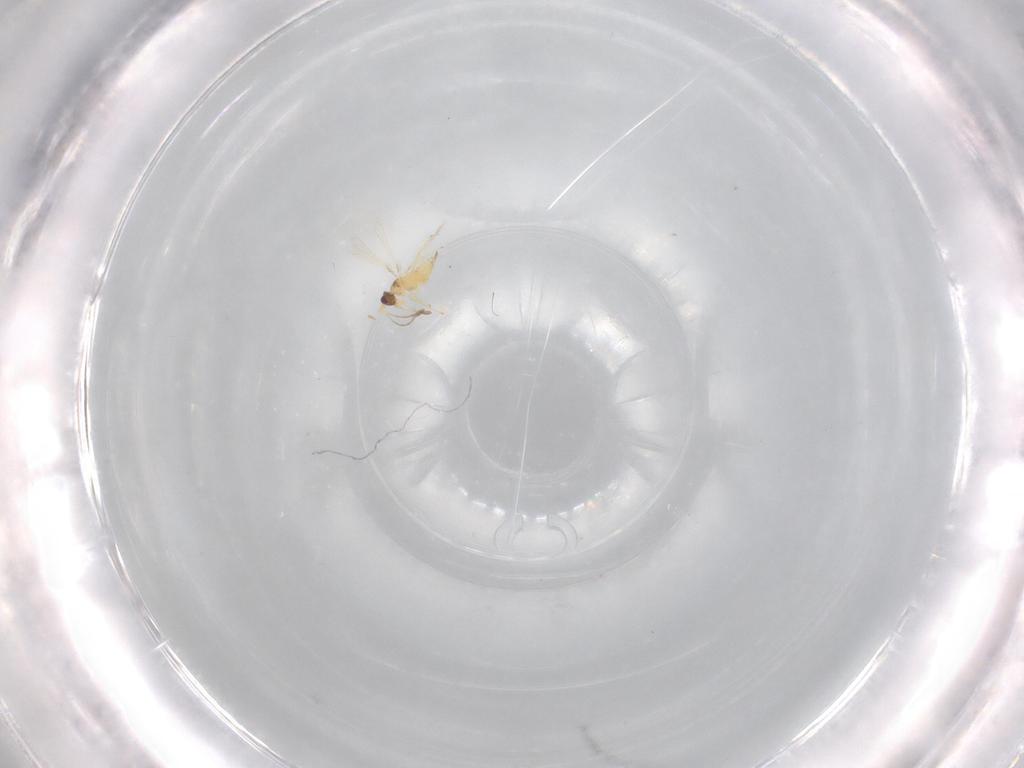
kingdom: Animalia
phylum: Arthropoda
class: Insecta
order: Hymenoptera
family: Mymaridae
